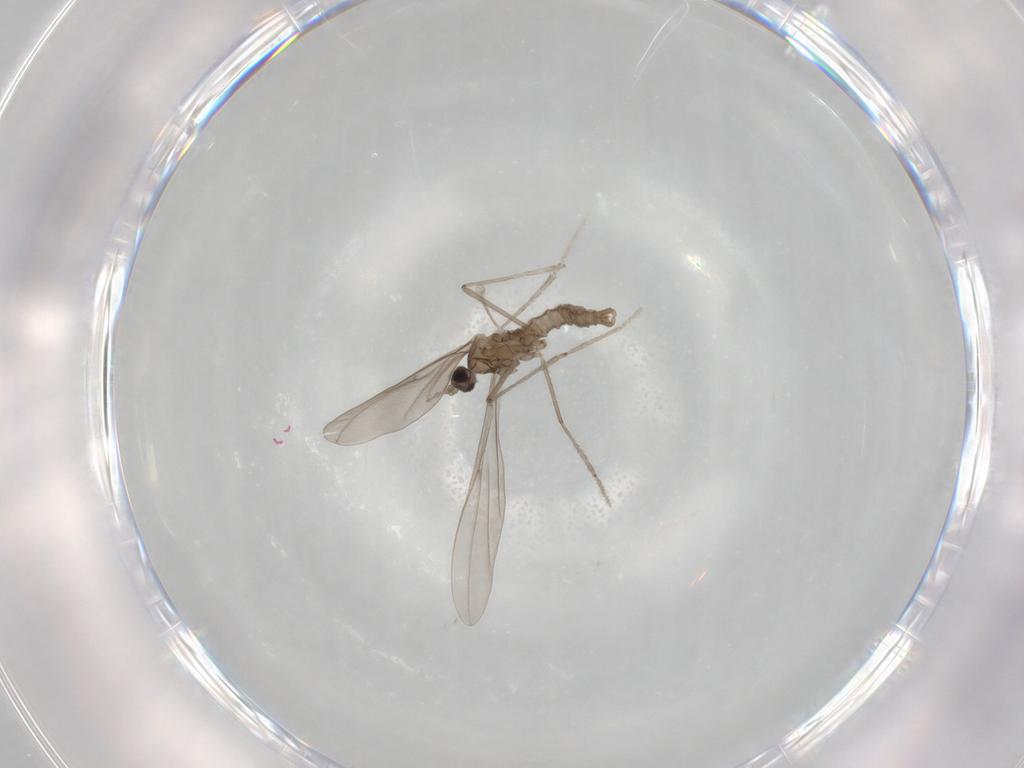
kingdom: Animalia
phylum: Arthropoda
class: Insecta
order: Diptera
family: Cecidomyiidae
